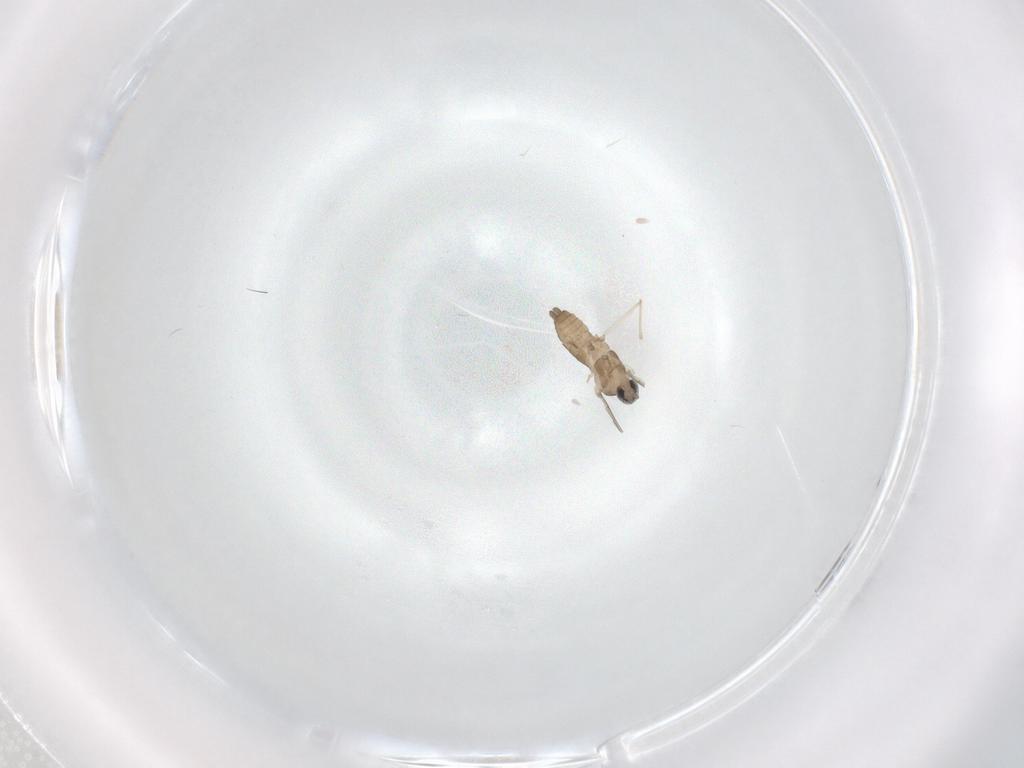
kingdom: Animalia
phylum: Arthropoda
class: Insecta
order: Diptera
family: Cecidomyiidae
